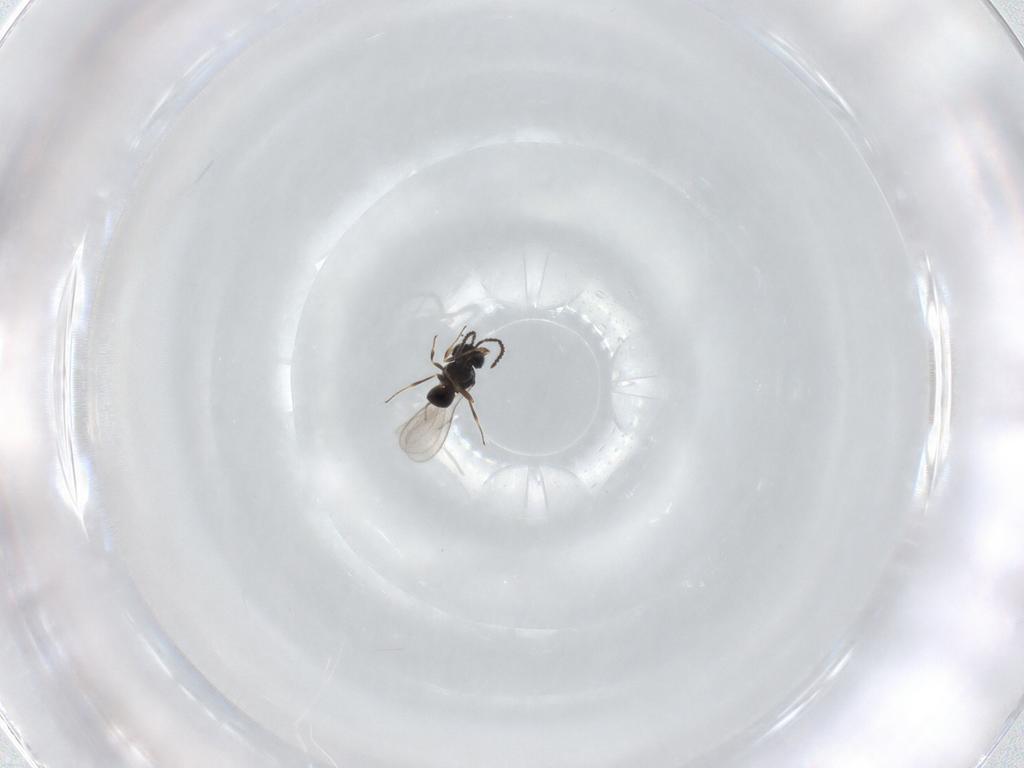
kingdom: Animalia
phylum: Arthropoda
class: Insecta
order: Hymenoptera
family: Scelionidae
